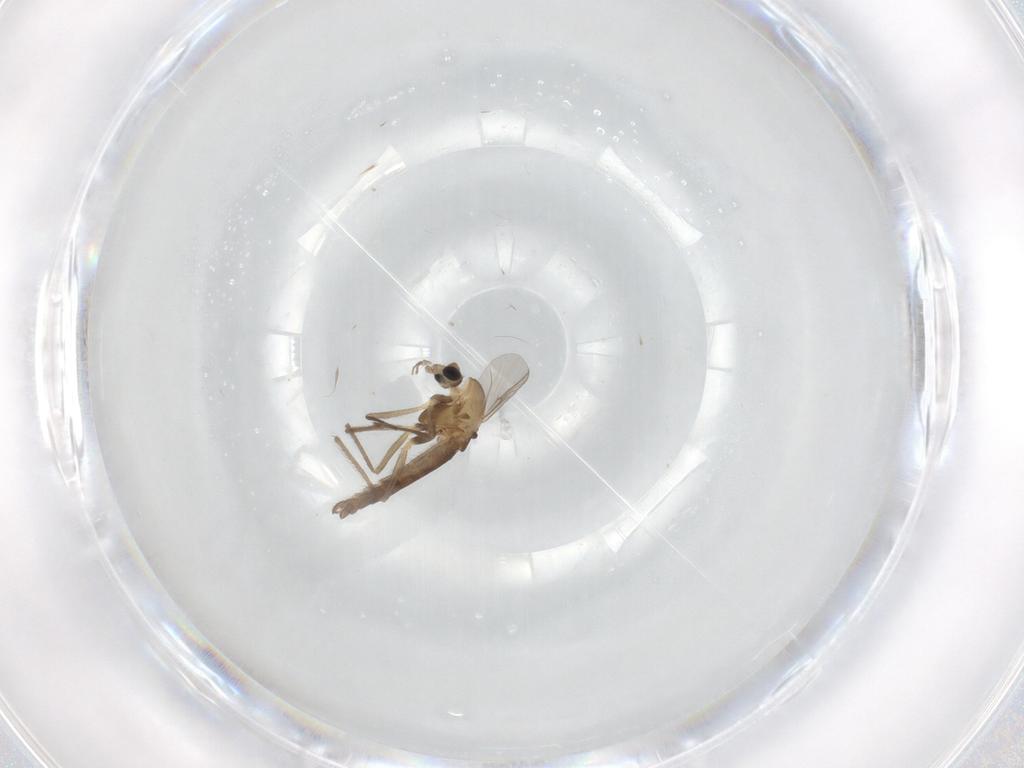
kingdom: Animalia
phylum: Arthropoda
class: Insecta
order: Diptera
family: Chironomidae
